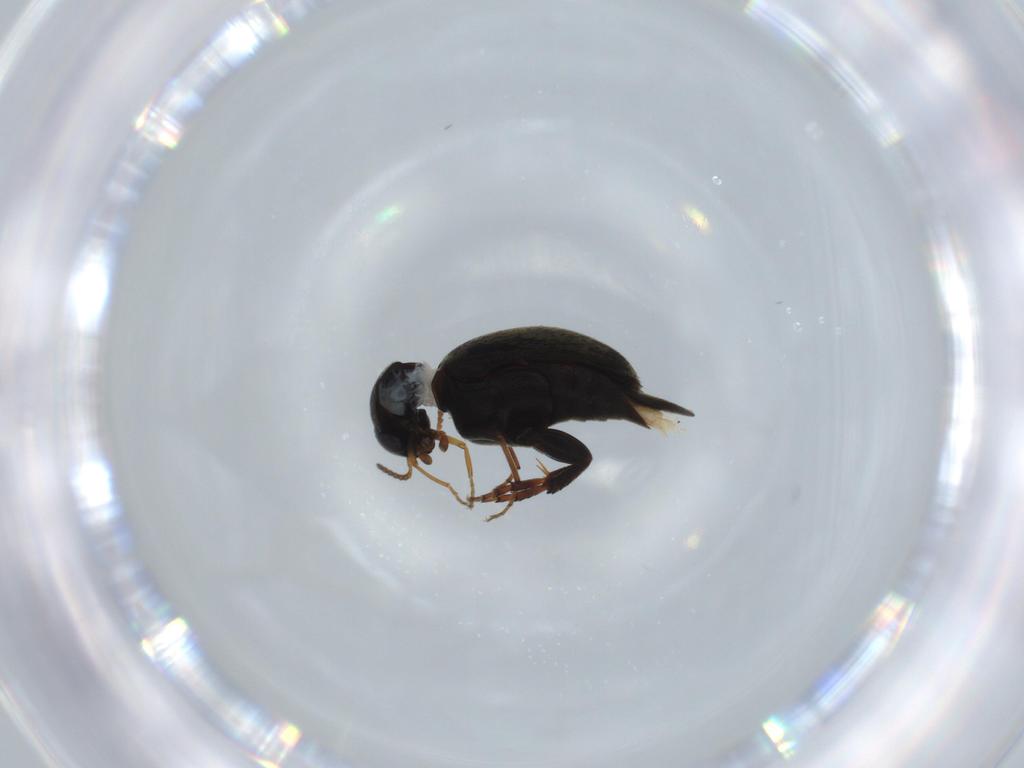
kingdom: Animalia
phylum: Arthropoda
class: Insecta
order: Coleoptera
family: Mordellidae
